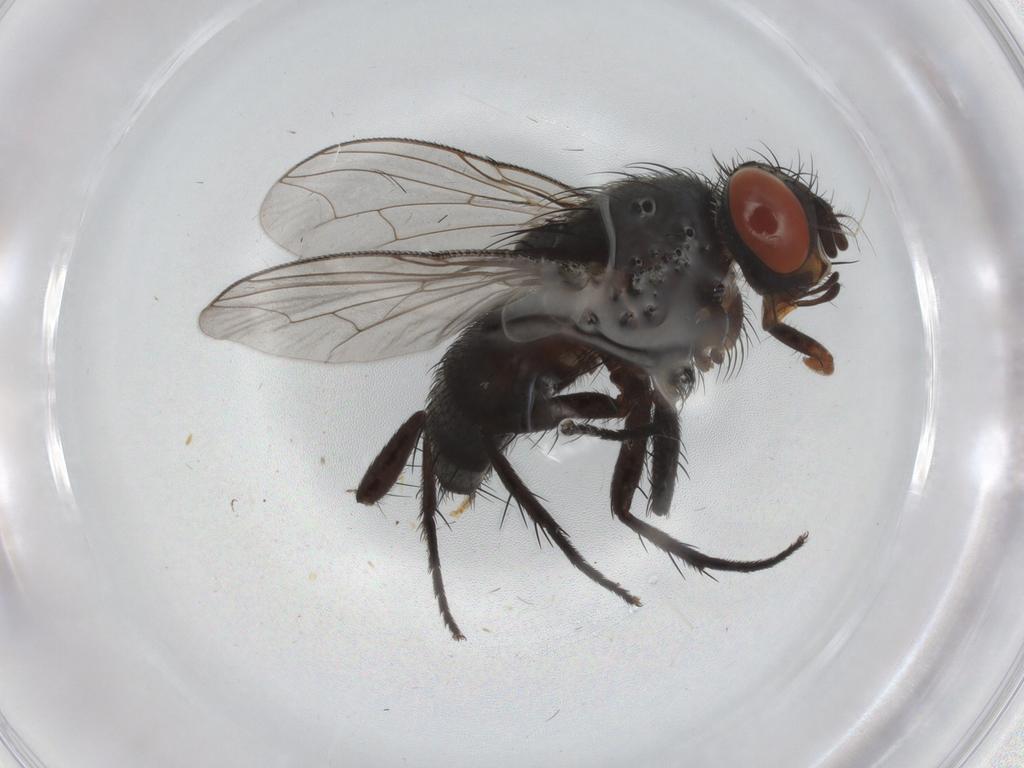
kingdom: Animalia
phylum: Arthropoda
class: Insecta
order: Diptera
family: Sarcophagidae
